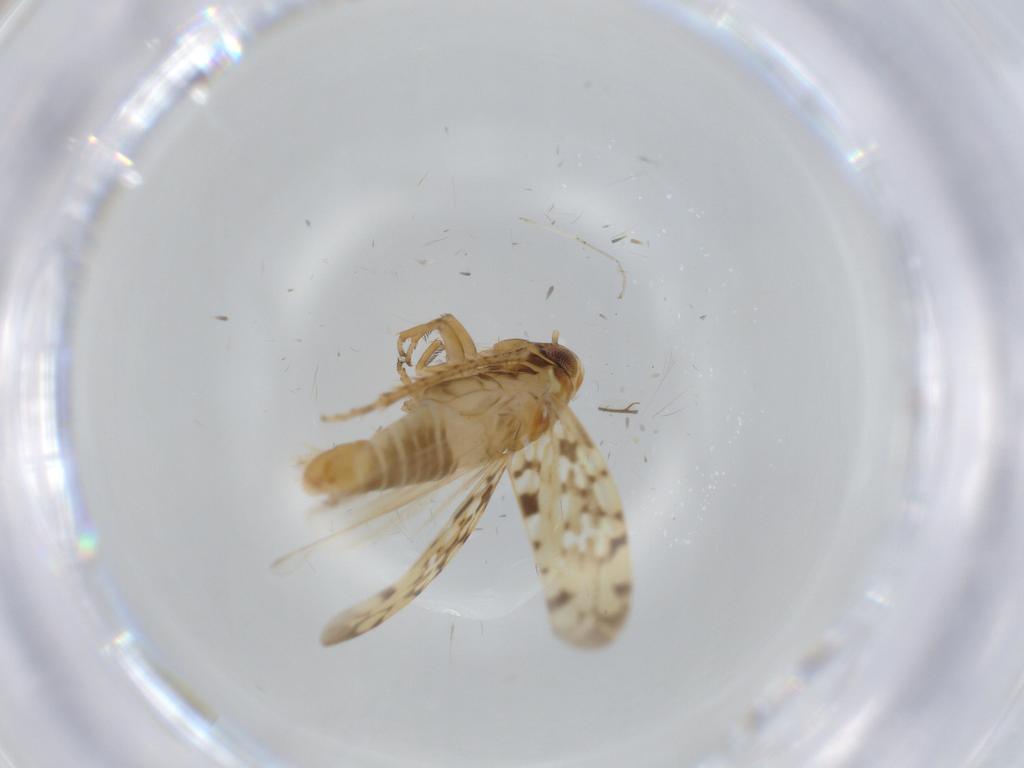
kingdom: Animalia
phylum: Arthropoda
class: Insecta
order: Hemiptera
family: Cicadellidae
